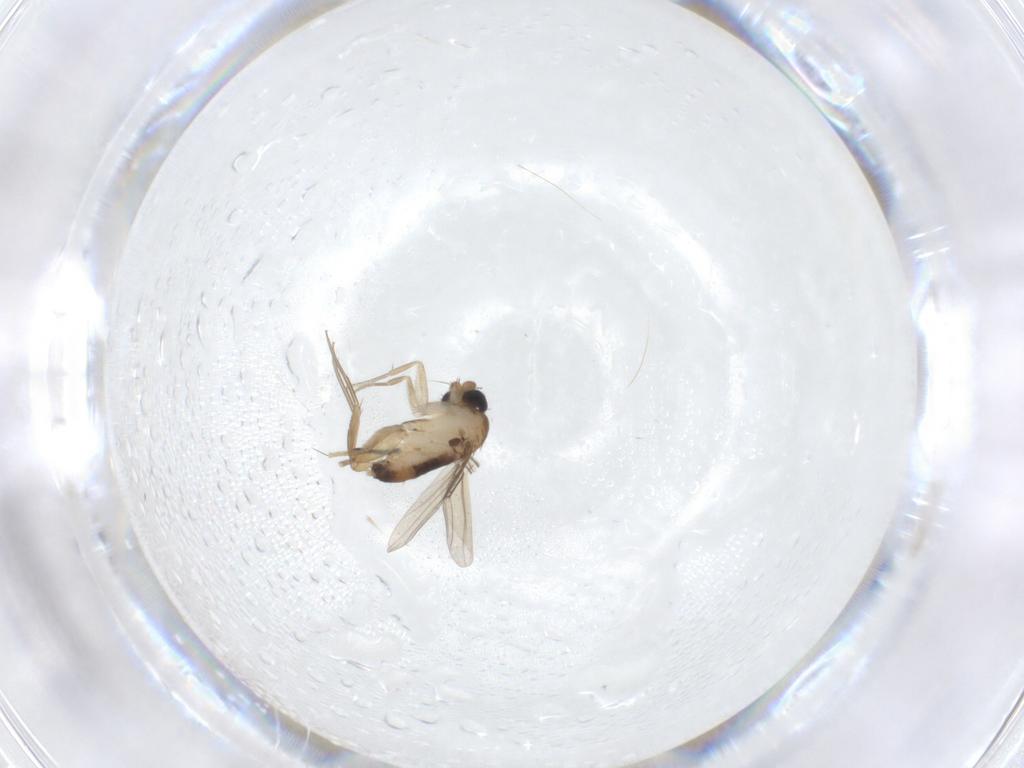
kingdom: Animalia
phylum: Arthropoda
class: Insecta
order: Diptera
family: Phoridae
